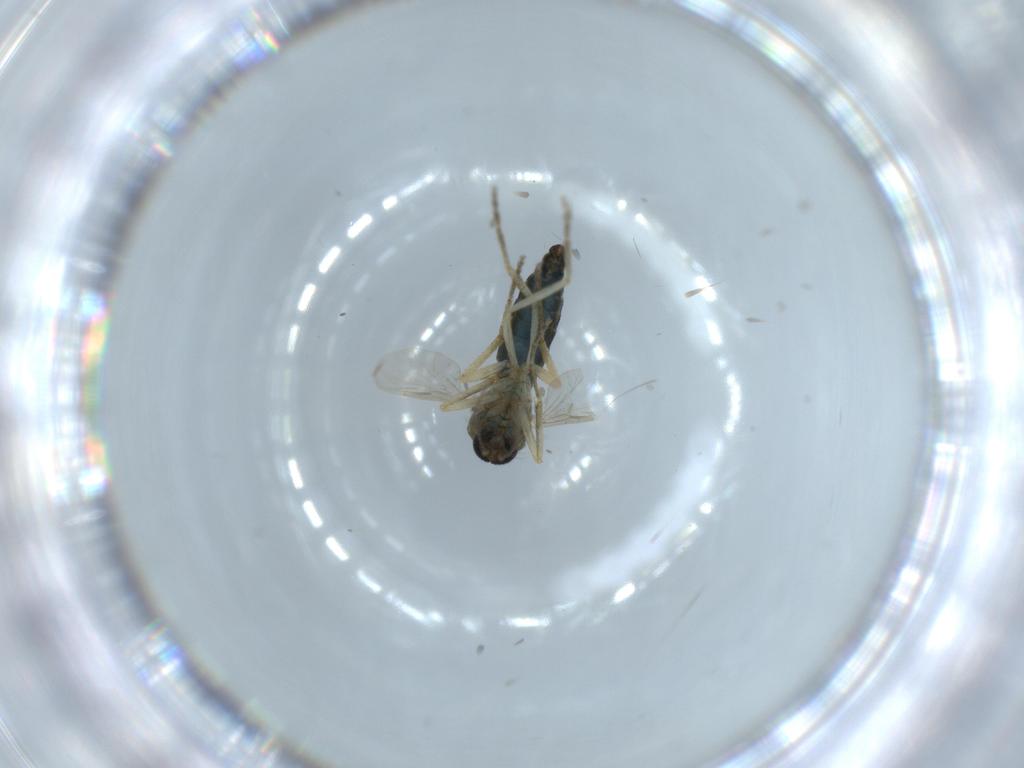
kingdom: Animalia
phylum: Arthropoda
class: Insecta
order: Diptera
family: Ceratopogonidae
